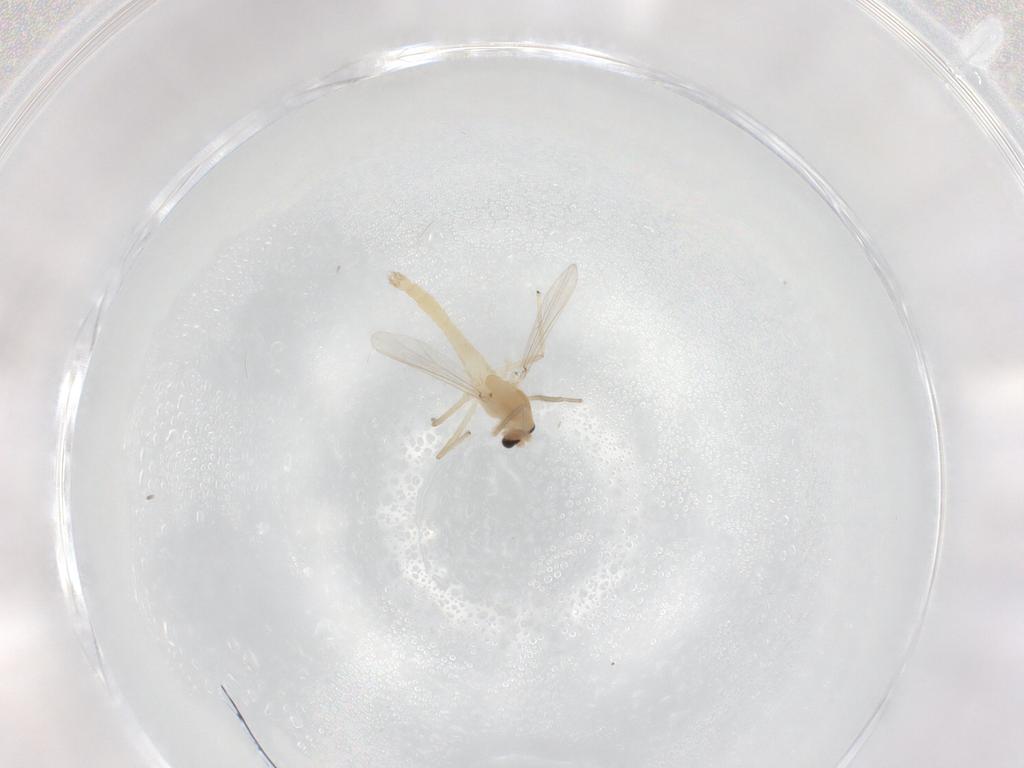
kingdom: Animalia
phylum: Arthropoda
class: Insecta
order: Diptera
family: Chironomidae
